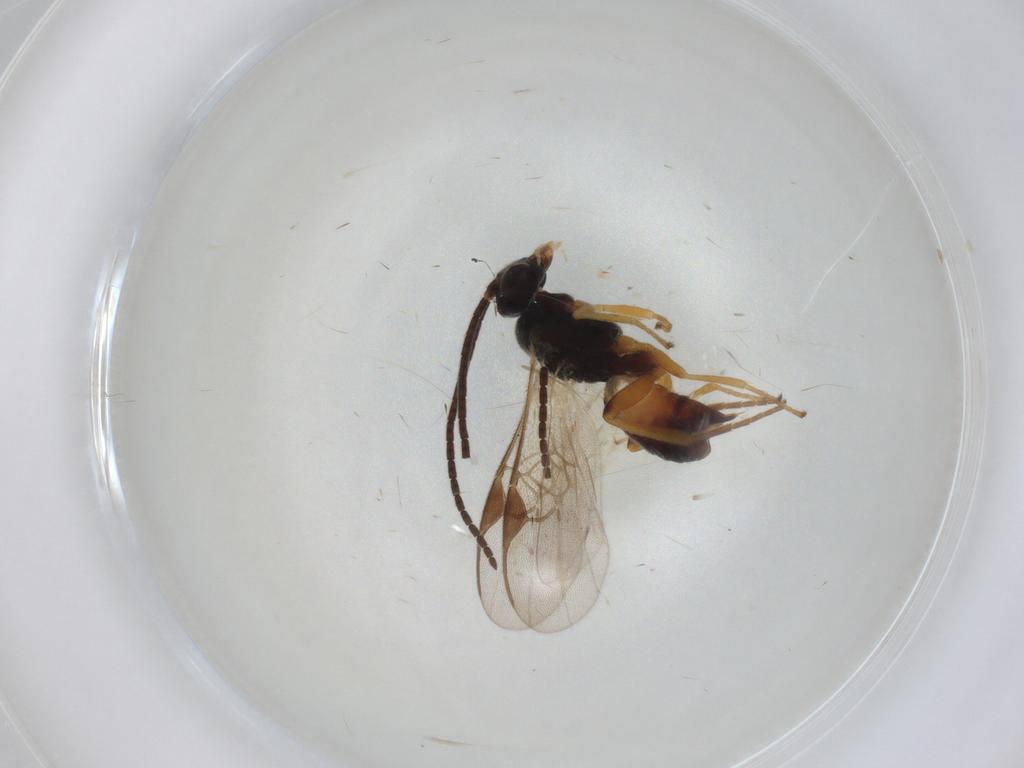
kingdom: Animalia
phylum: Arthropoda
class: Insecta
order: Hymenoptera
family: Braconidae
